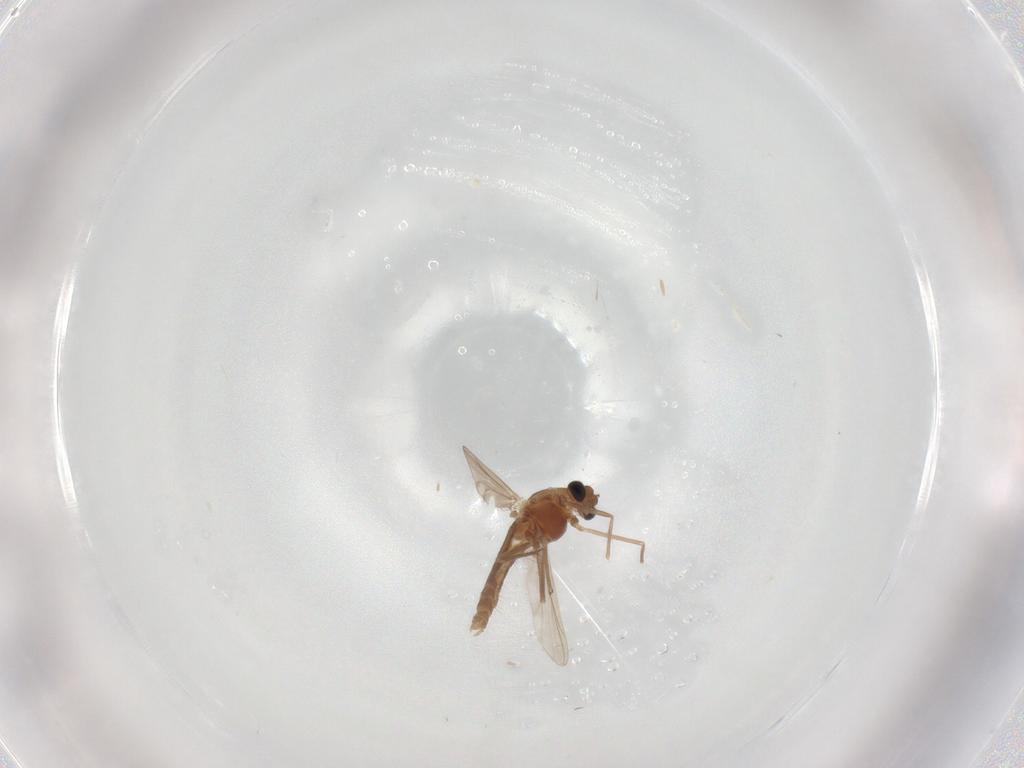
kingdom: Animalia
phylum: Arthropoda
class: Insecta
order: Diptera
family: Chironomidae
